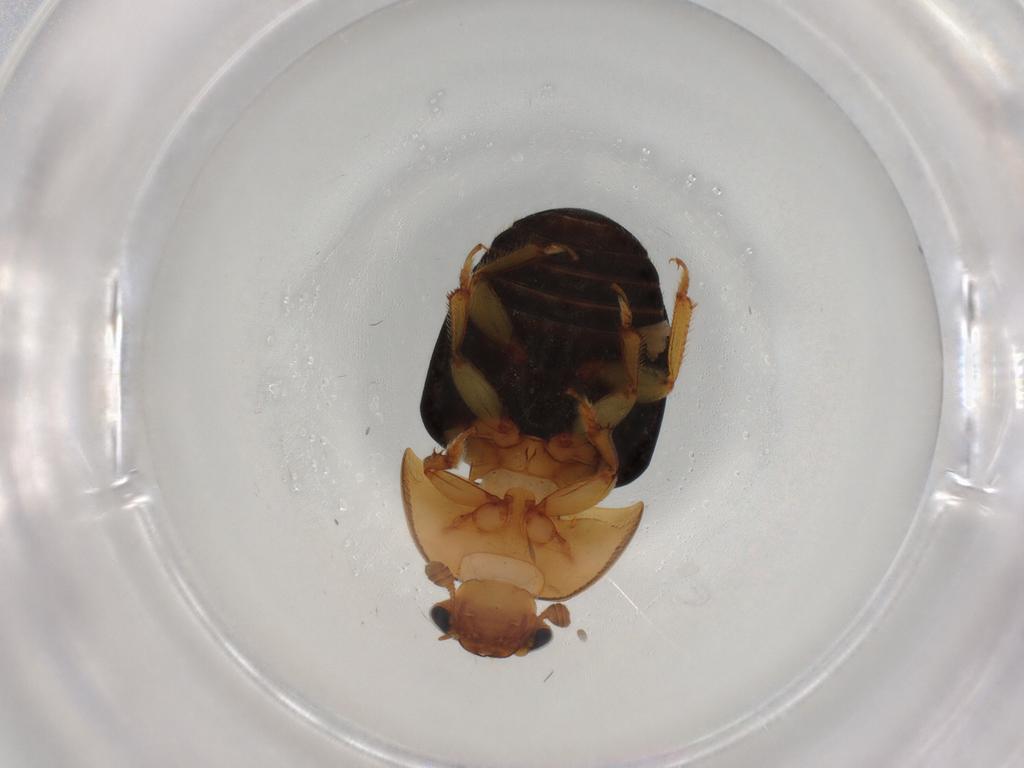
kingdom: Animalia
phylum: Arthropoda
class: Insecta
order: Coleoptera
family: Nitidulidae
